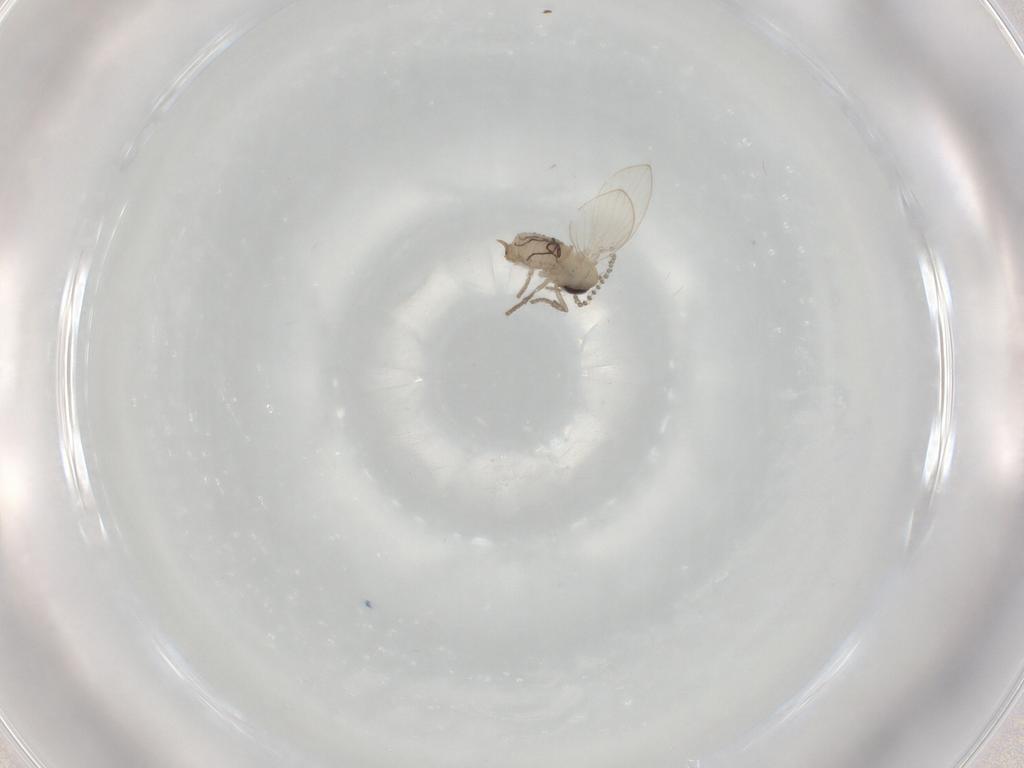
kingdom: Animalia
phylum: Arthropoda
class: Insecta
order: Diptera
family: Psychodidae
